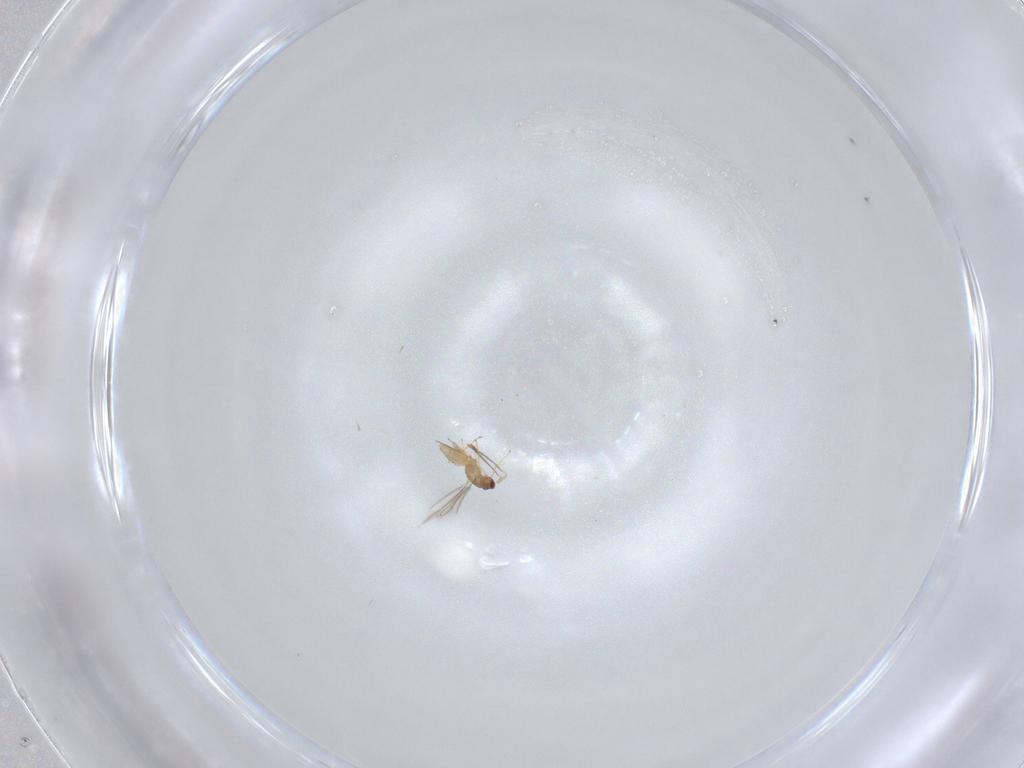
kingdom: Animalia
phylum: Arthropoda
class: Insecta
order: Hymenoptera
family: Mymaridae
